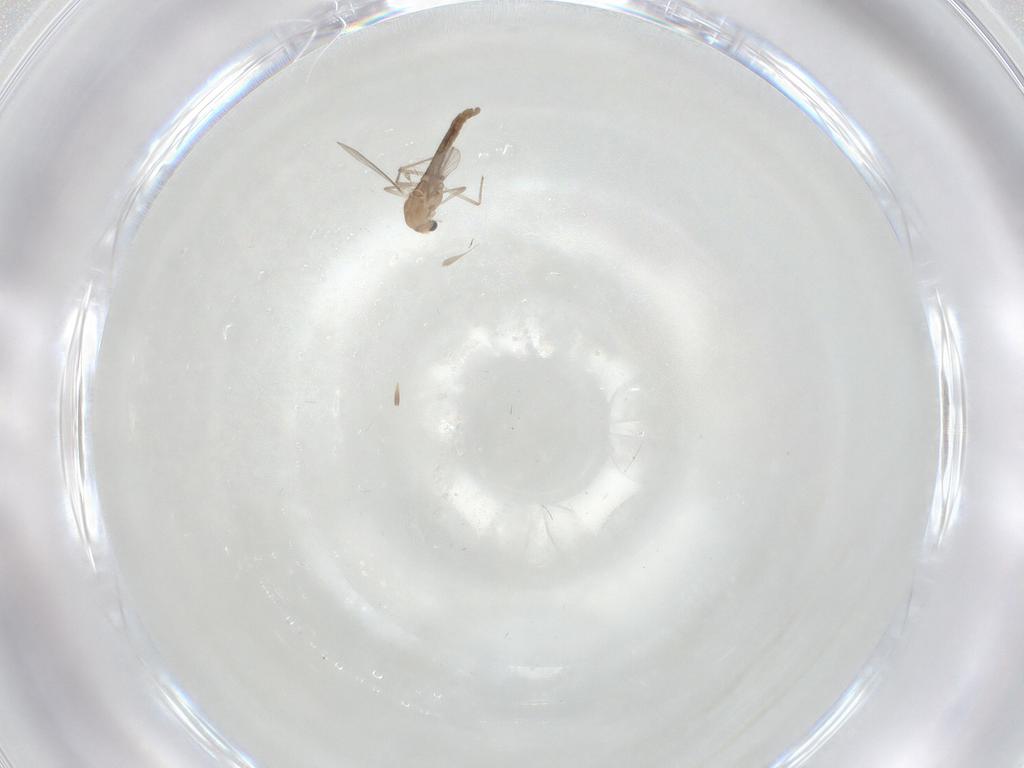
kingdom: Animalia
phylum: Arthropoda
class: Insecta
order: Diptera
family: Chironomidae
